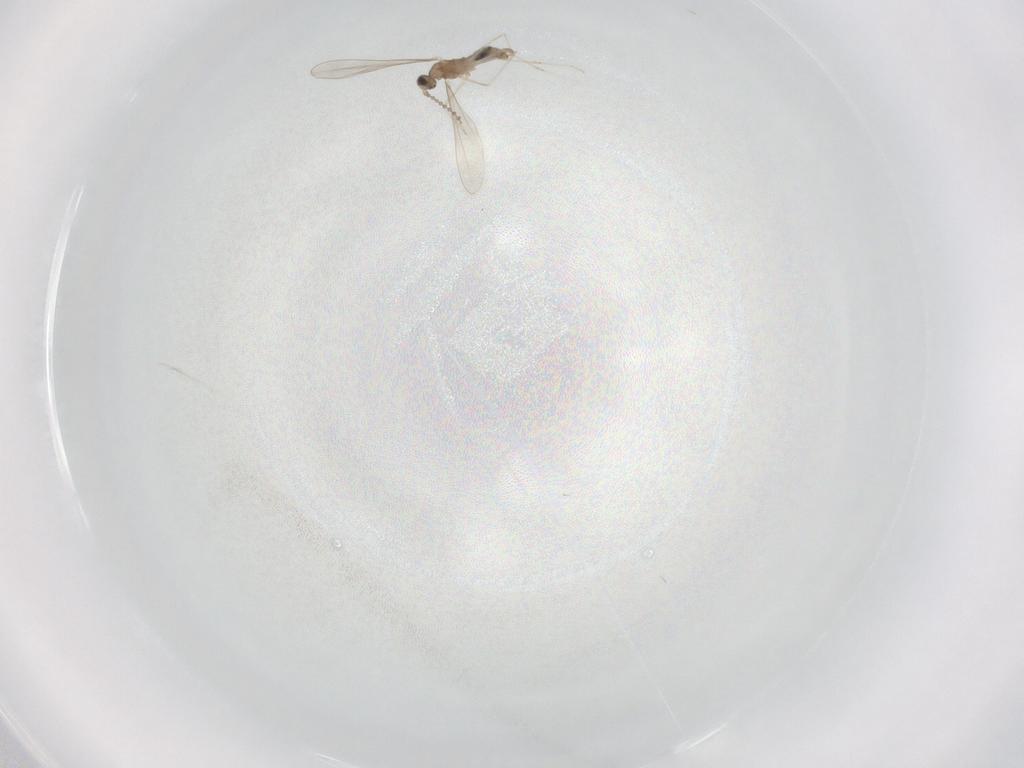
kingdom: Animalia
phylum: Arthropoda
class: Insecta
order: Diptera
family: Cecidomyiidae
